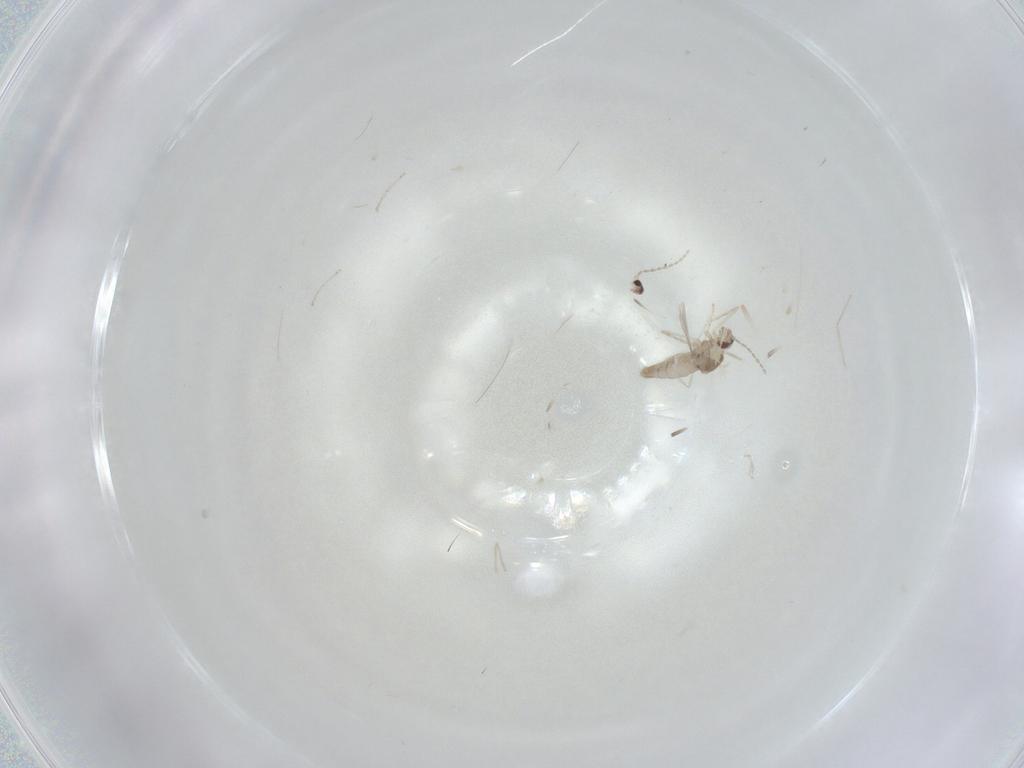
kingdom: Animalia
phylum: Arthropoda
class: Insecta
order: Diptera
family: Cecidomyiidae
